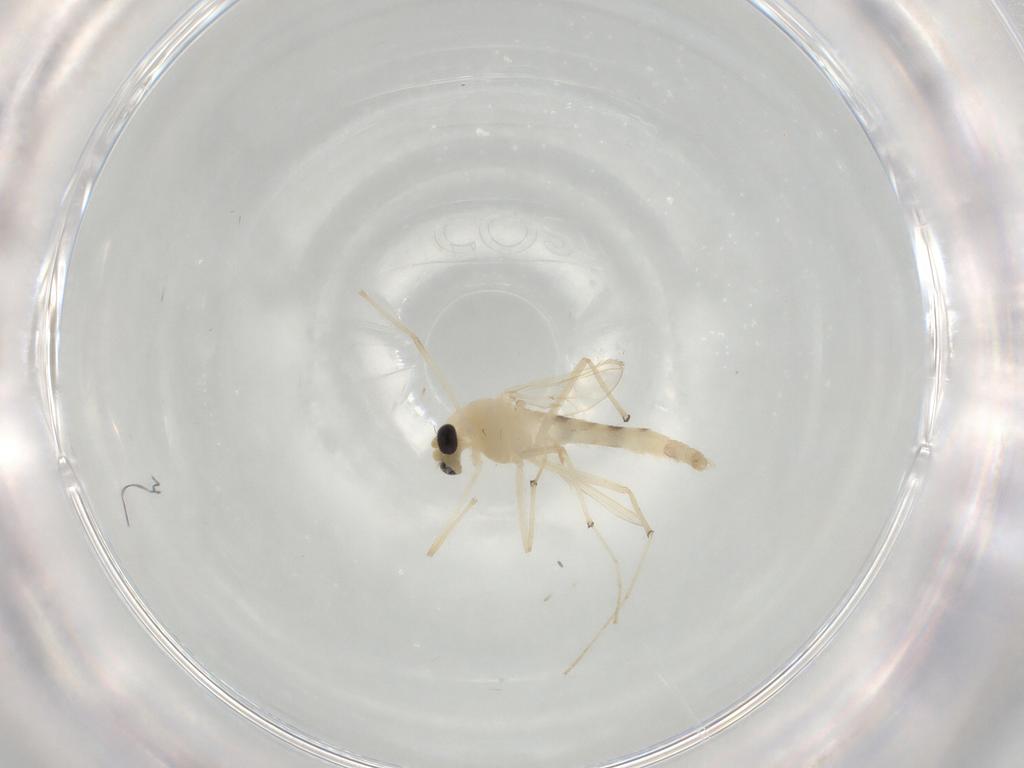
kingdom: Animalia
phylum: Arthropoda
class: Insecta
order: Diptera
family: Chironomidae
